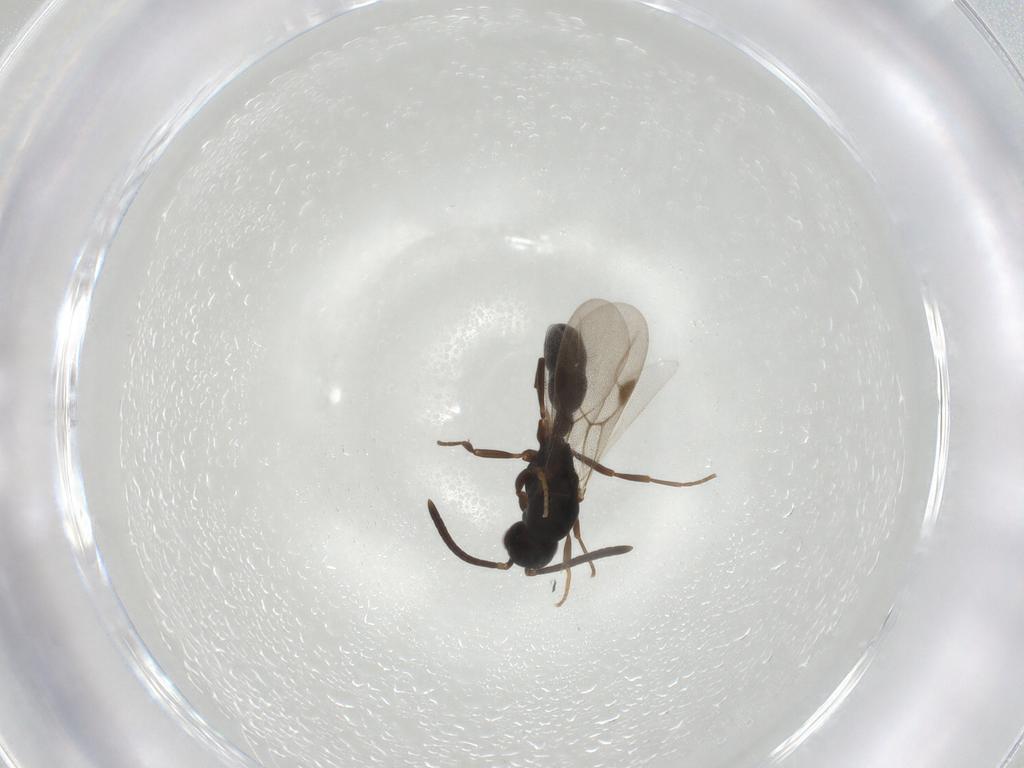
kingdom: Animalia
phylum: Arthropoda
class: Insecta
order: Hymenoptera
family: Formicidae
